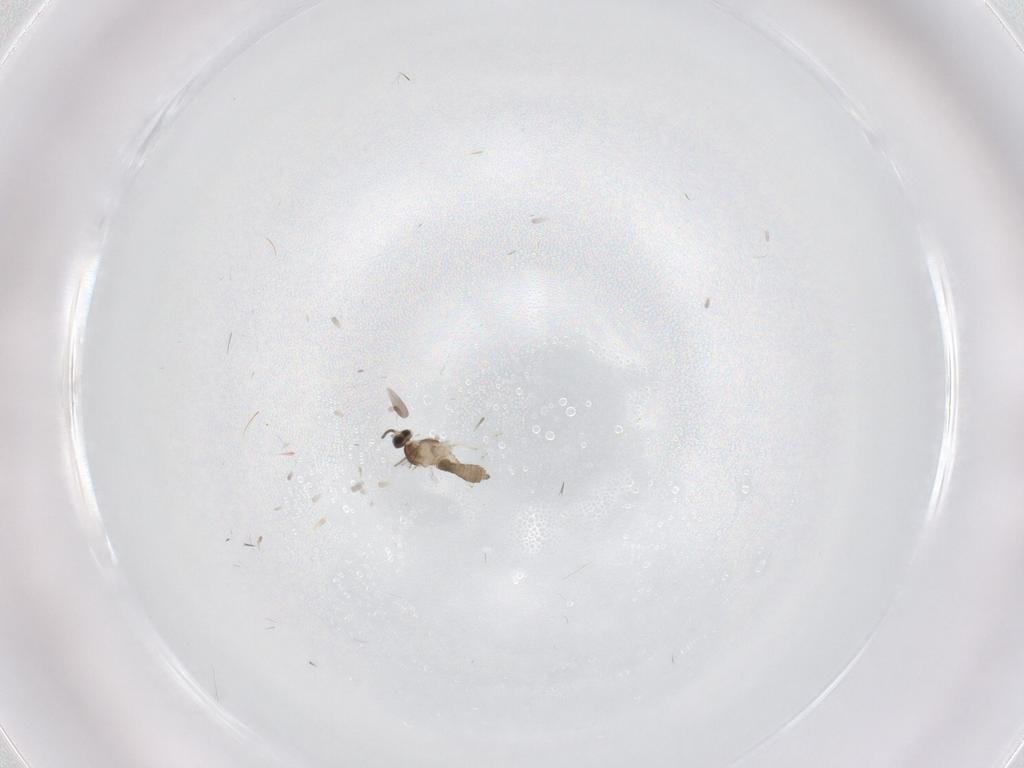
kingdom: Animalia
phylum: Arthropoda
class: Insecta
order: Diptera
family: Cecidomyiidae
